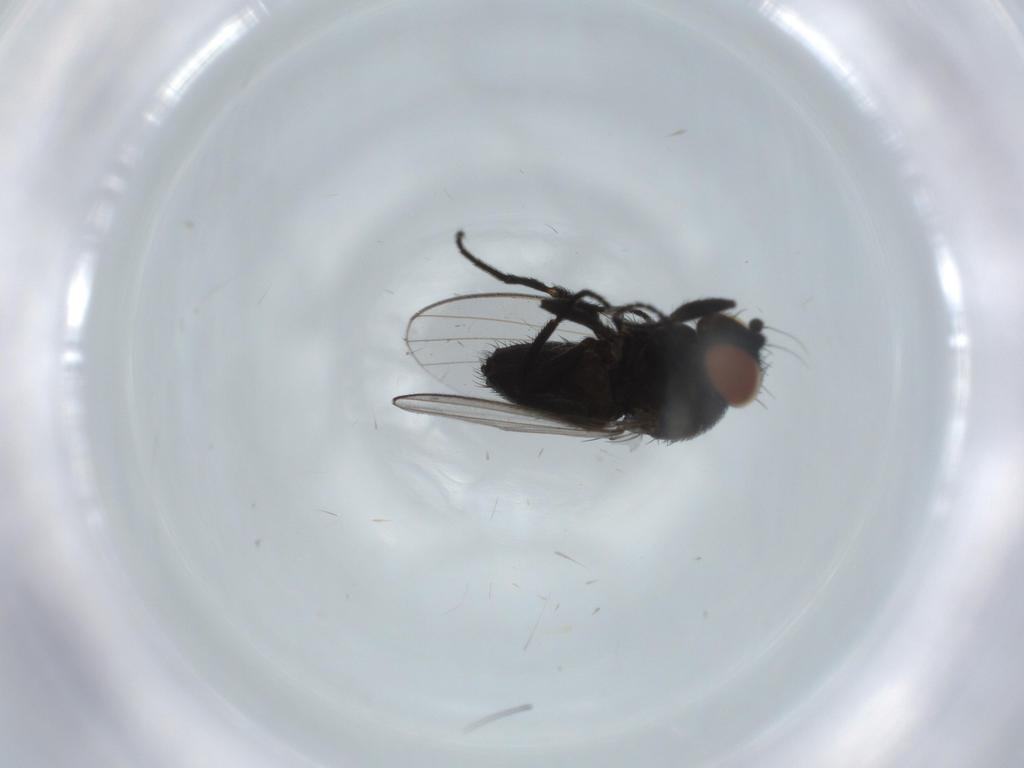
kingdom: Animalia
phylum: Arthropoda
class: Insecta
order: Diptera
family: Milichiidae
